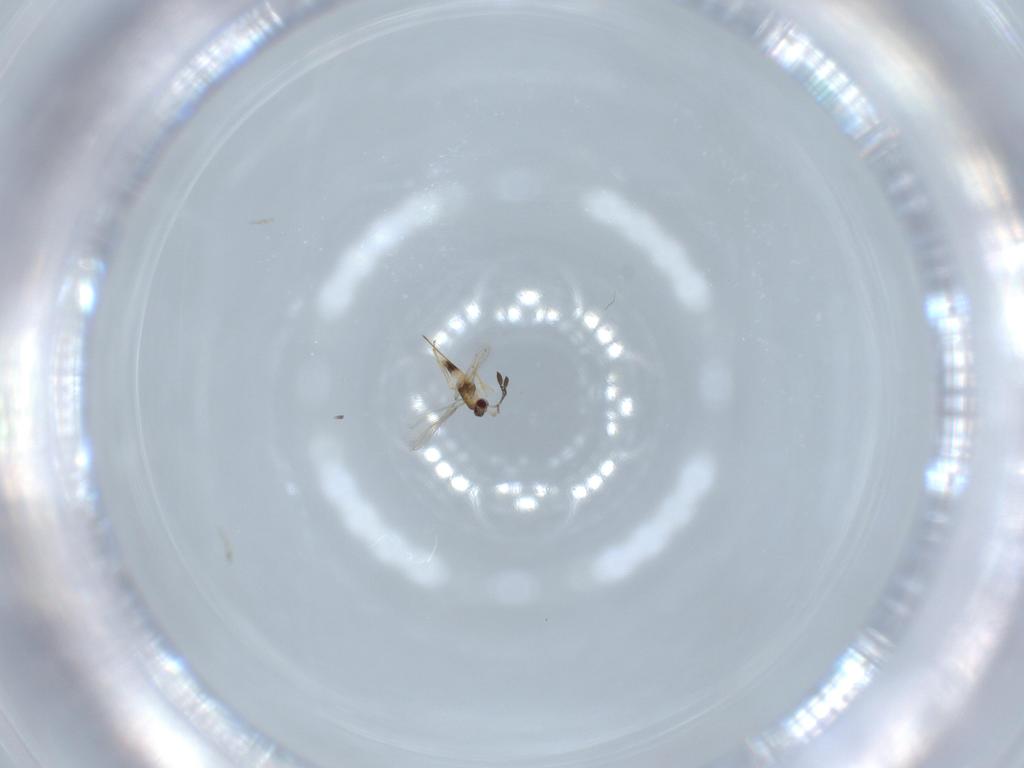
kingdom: Animalia
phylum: Arthropoda
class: Insecta
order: Hymenoptera
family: Mymaridae
